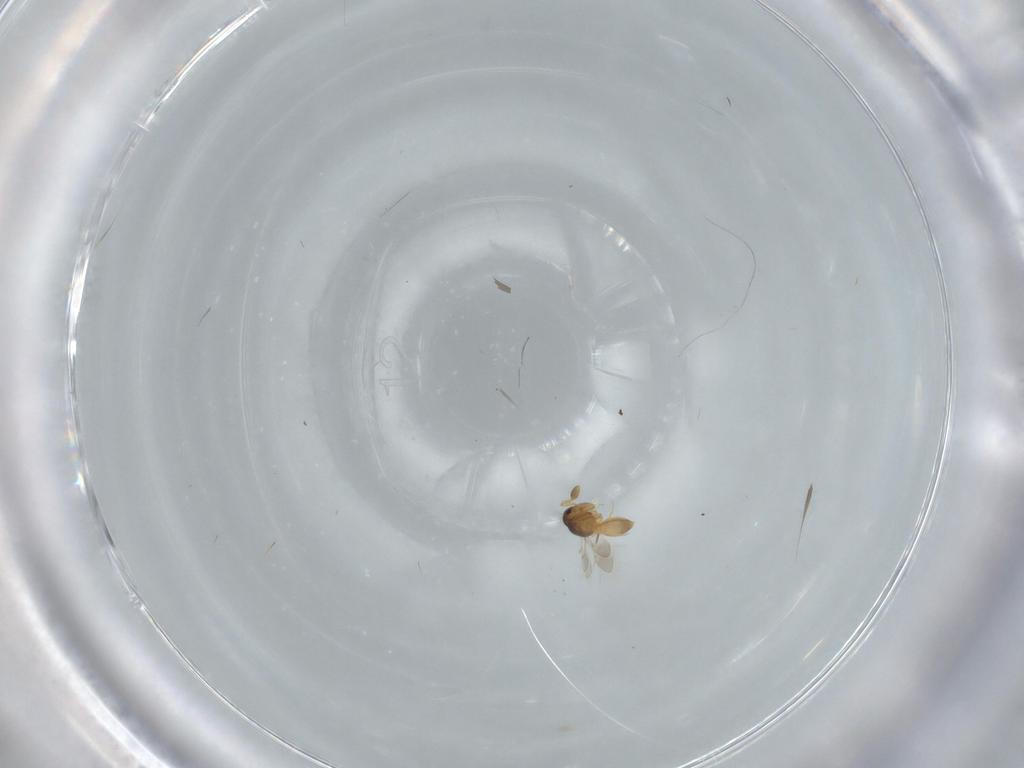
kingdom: Animalia
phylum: Arthropoda
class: Insecta
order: Hymenoptera
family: Scelionidae
